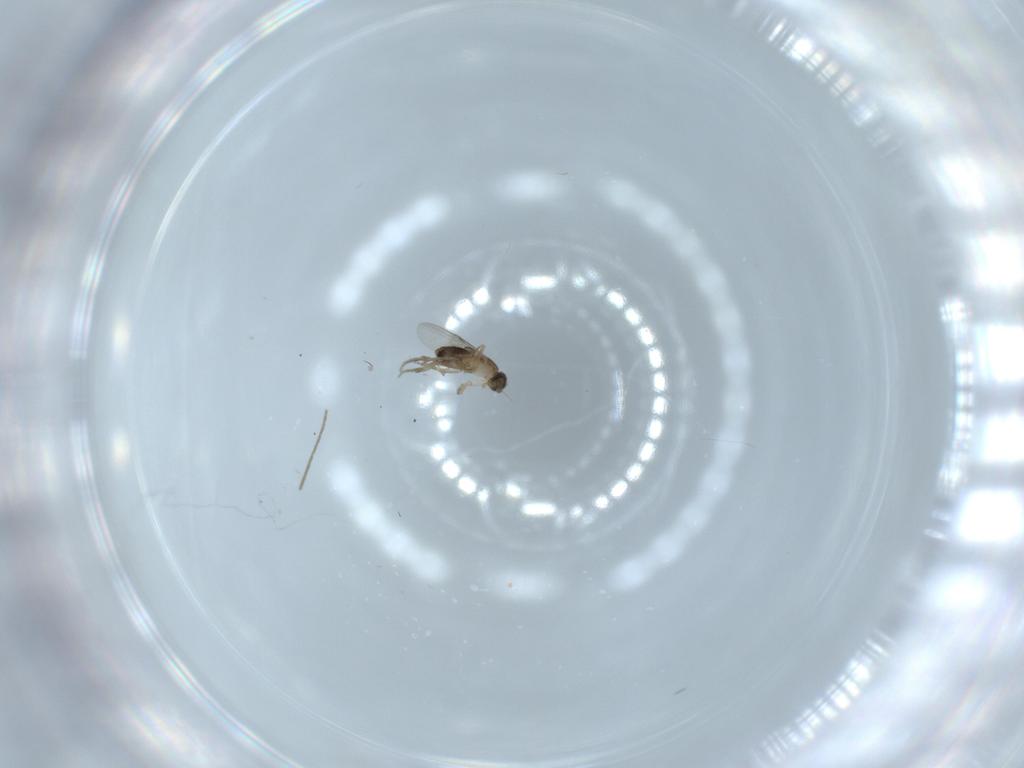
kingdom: Animalia
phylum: Arthropoda
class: Insecta
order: Diptera
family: Chironomidae
